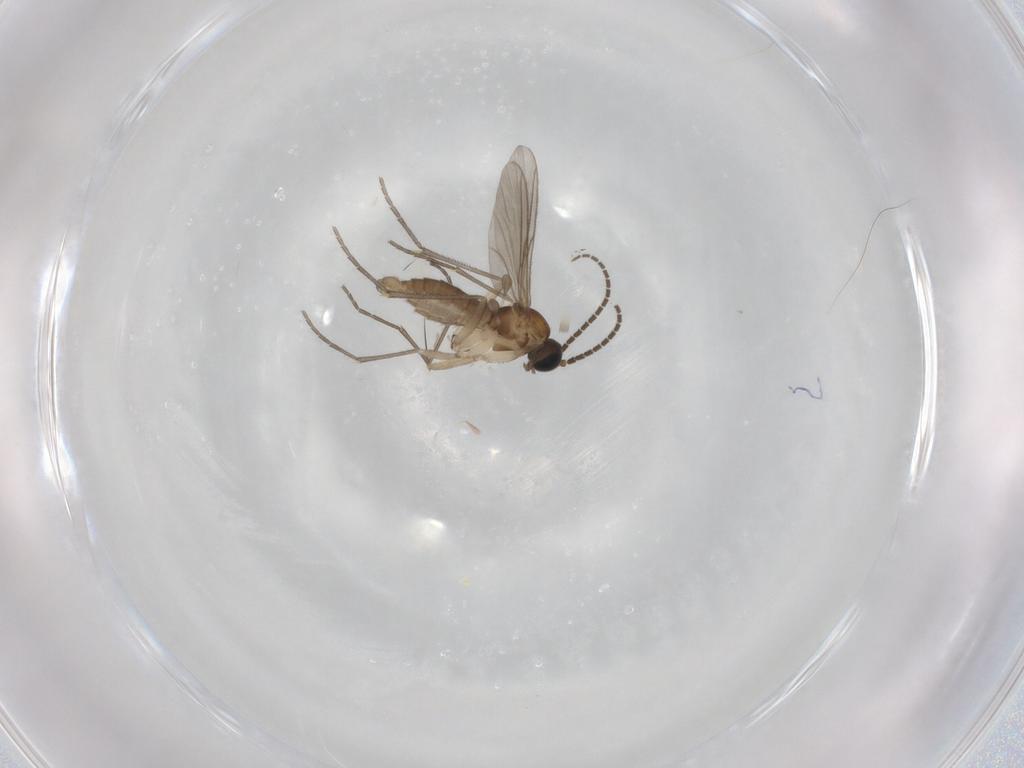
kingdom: Animalia
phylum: Arthropoda
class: Insecta
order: Diptera
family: Sciaridae
